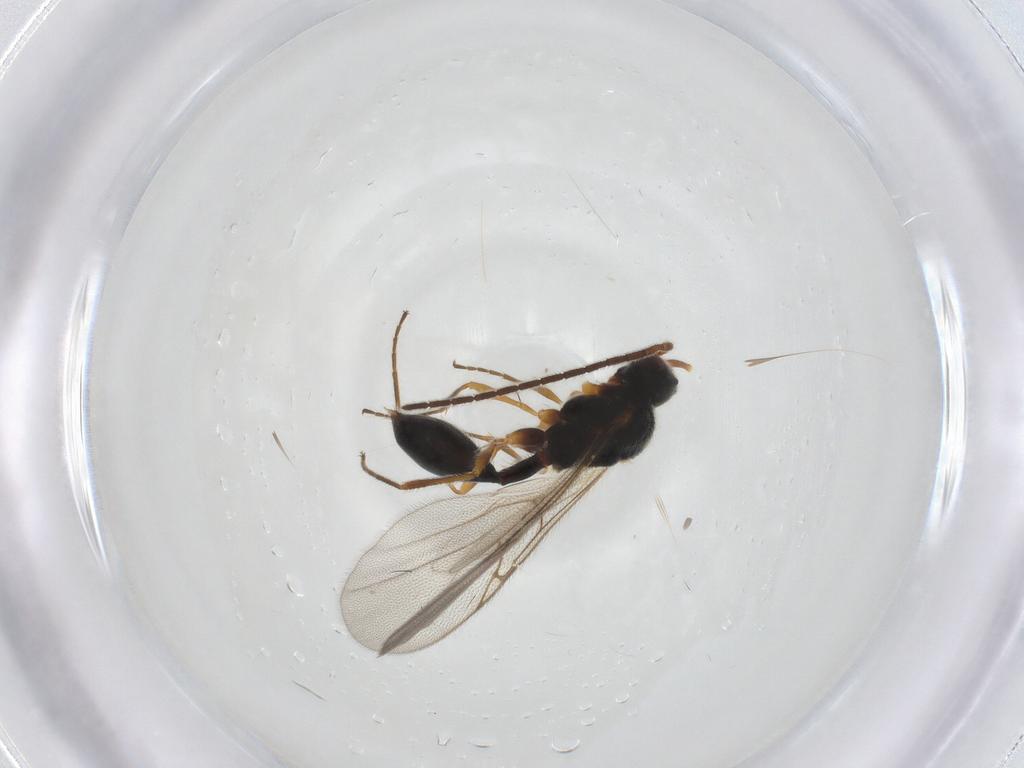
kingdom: Animalia
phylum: Arthropoda
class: Insecta
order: Hymenoptera
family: Diapriidae
